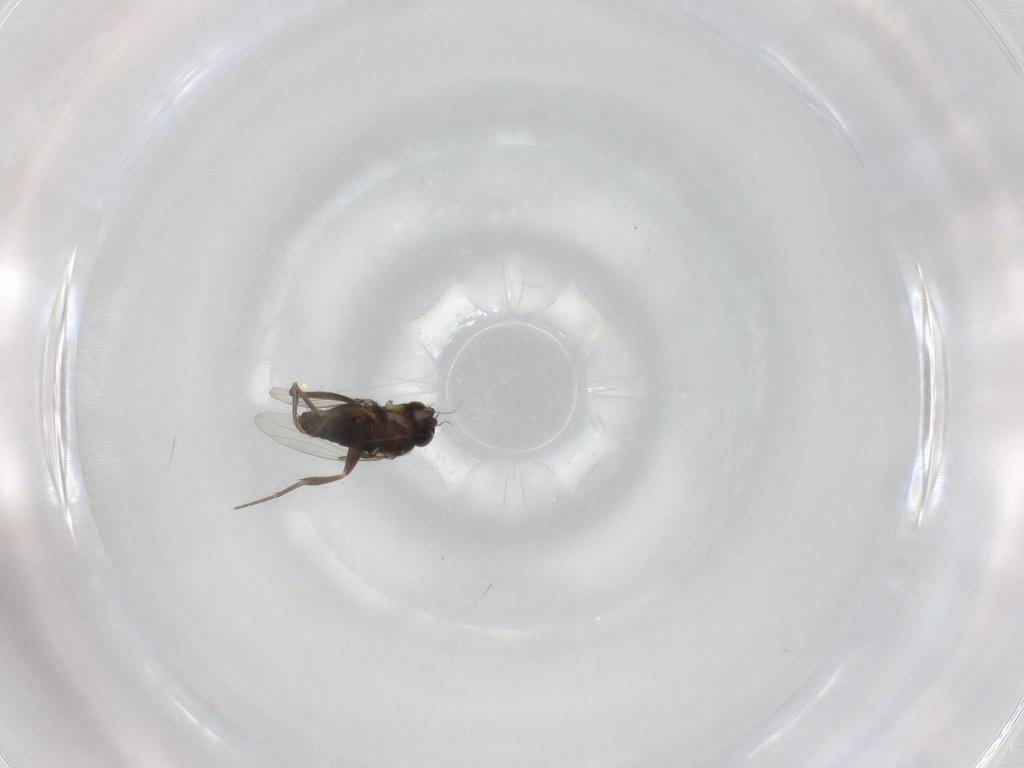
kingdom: Animalia
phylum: Arthropoda
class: Insecta
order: Diptera
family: Phoridae
